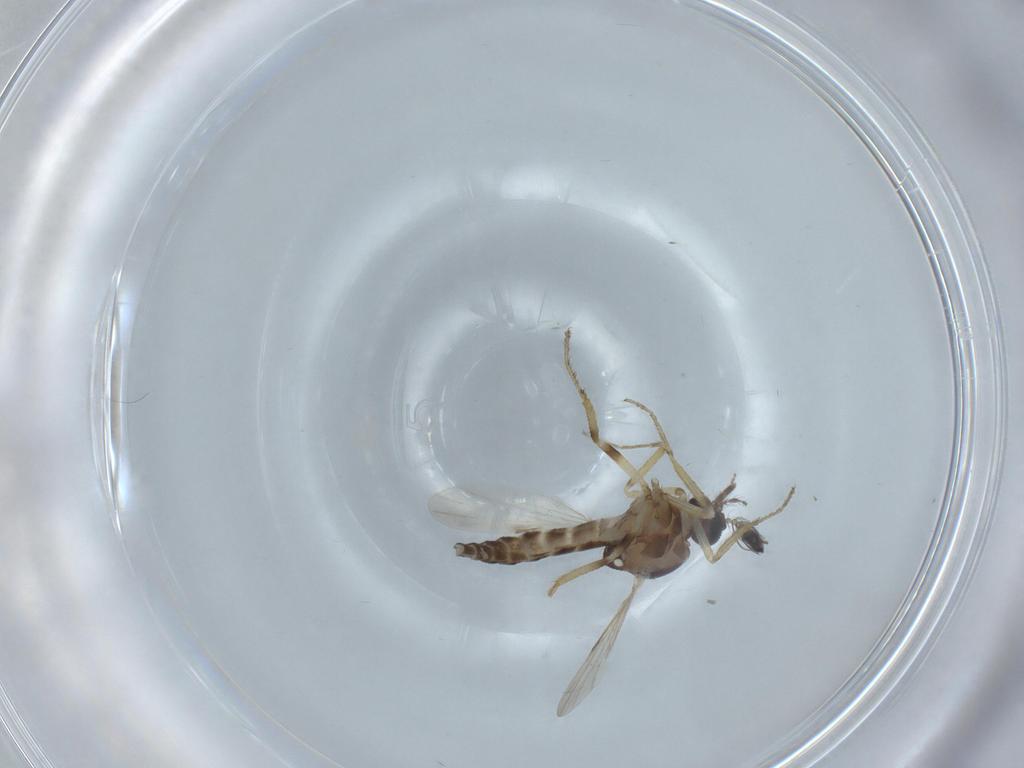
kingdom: Animalia
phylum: Arthropoda
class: Insecta
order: Diptera
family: Ceratopogonidae
